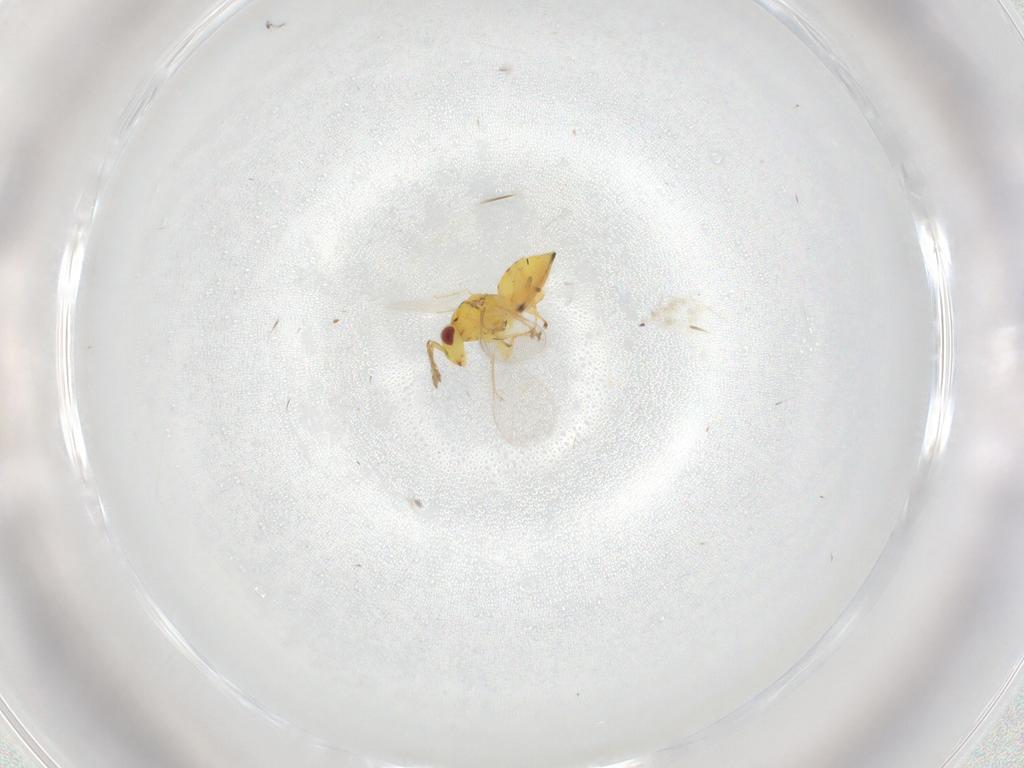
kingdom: Animalia
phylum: Arthropoda
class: Insecta
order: Hymenoptera
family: Eulophidae
